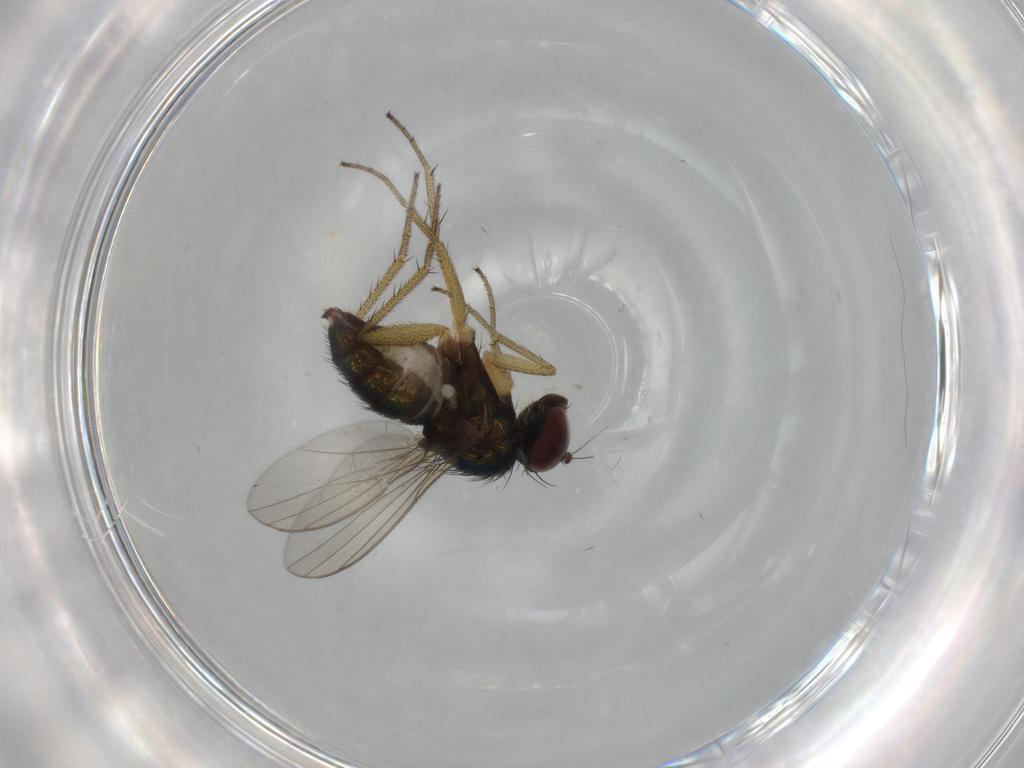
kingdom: Animalia
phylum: Arthropoda
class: Insecta
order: Diptera
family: Dolichopodidae
